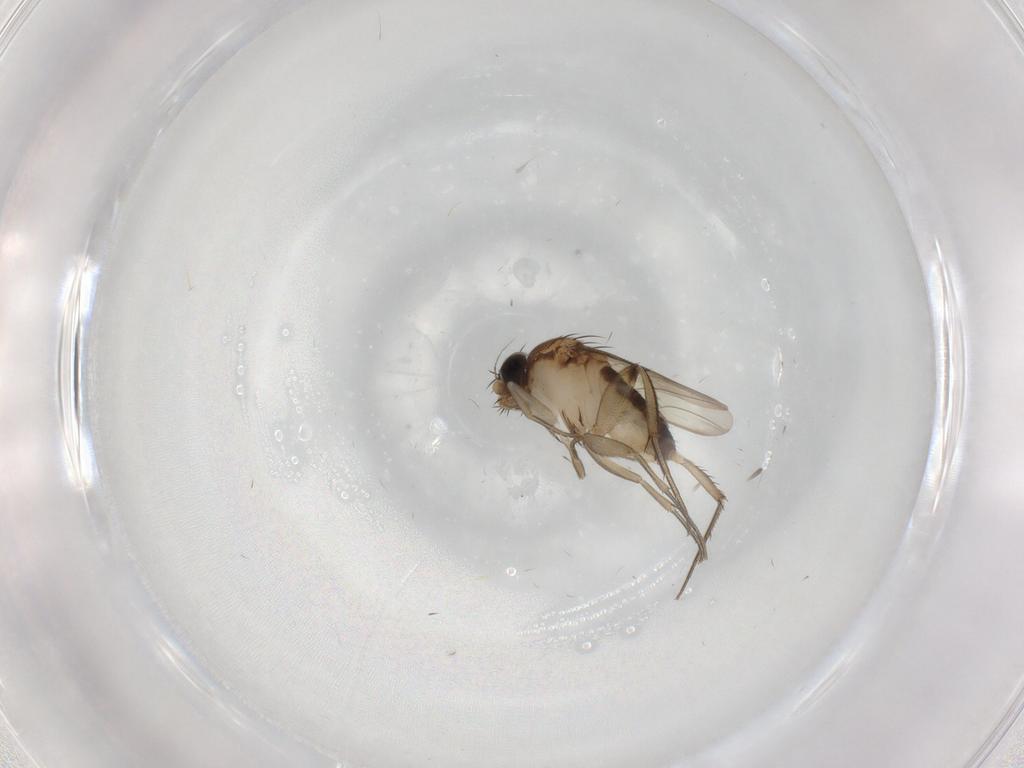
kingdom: Animalia
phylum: Arthropoda
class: Insecta
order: Diptera
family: Phoridae
